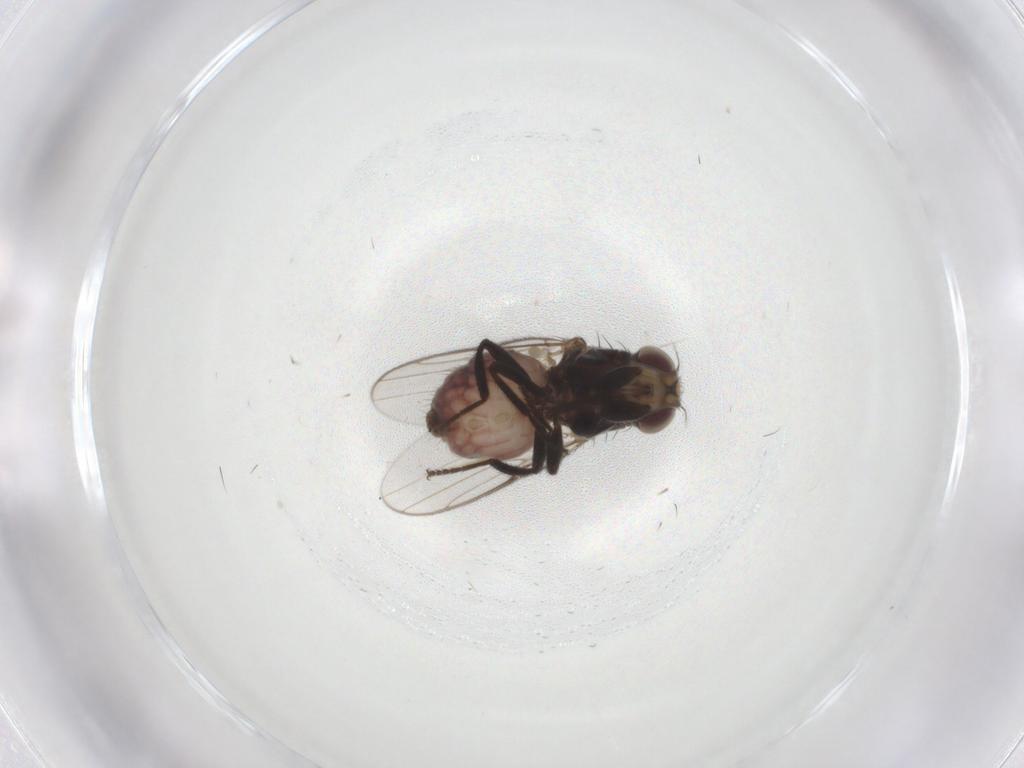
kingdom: Animalia
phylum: Arthropoda
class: Insecta
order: Diptera
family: Chloropidae
